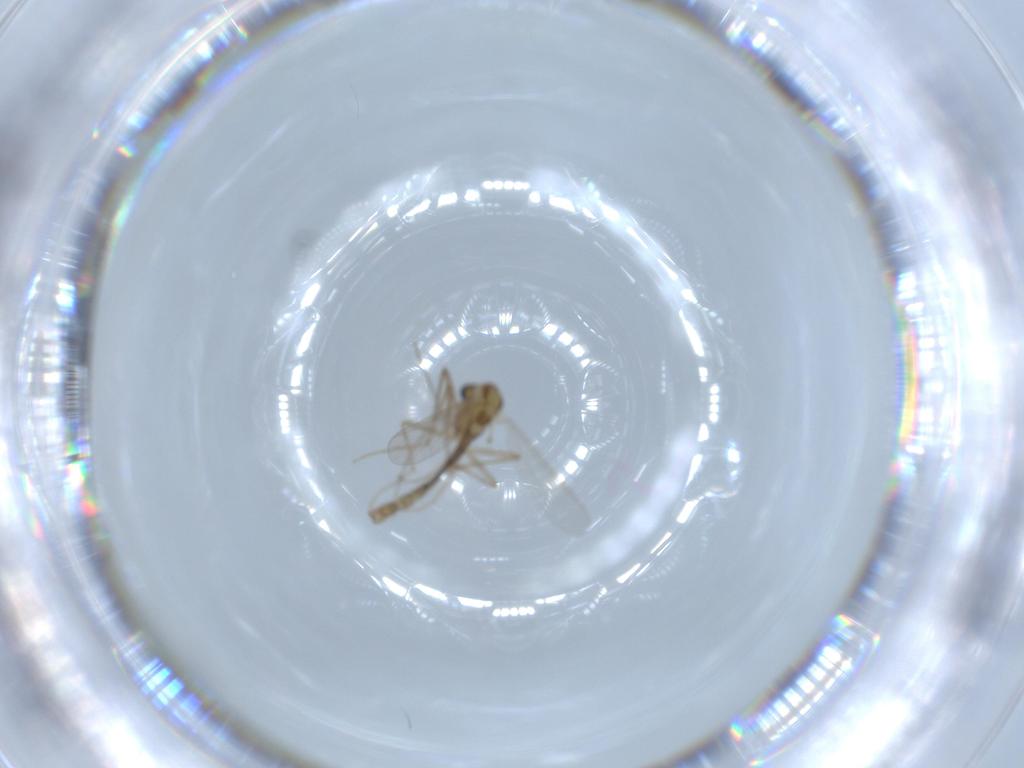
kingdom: Animalia
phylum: Arthropoda
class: Insecta
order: Diptera
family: Chironomidae
